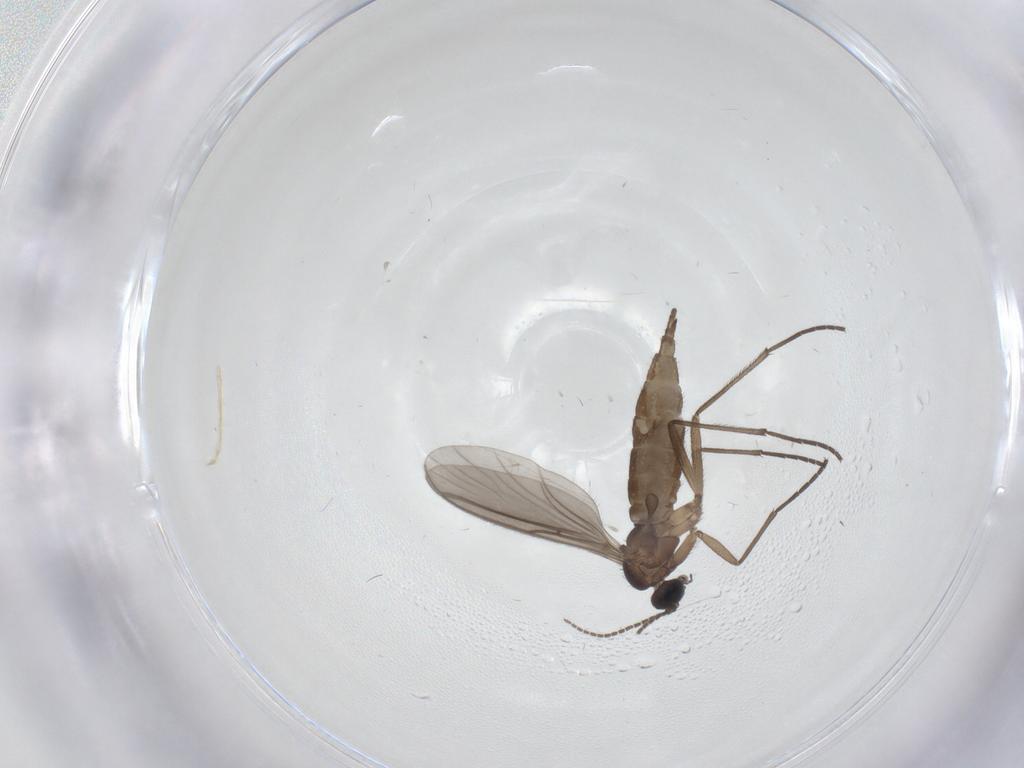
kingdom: Animalia
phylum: Arthropoda
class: Insecta
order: Diptera
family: Sciaridae
